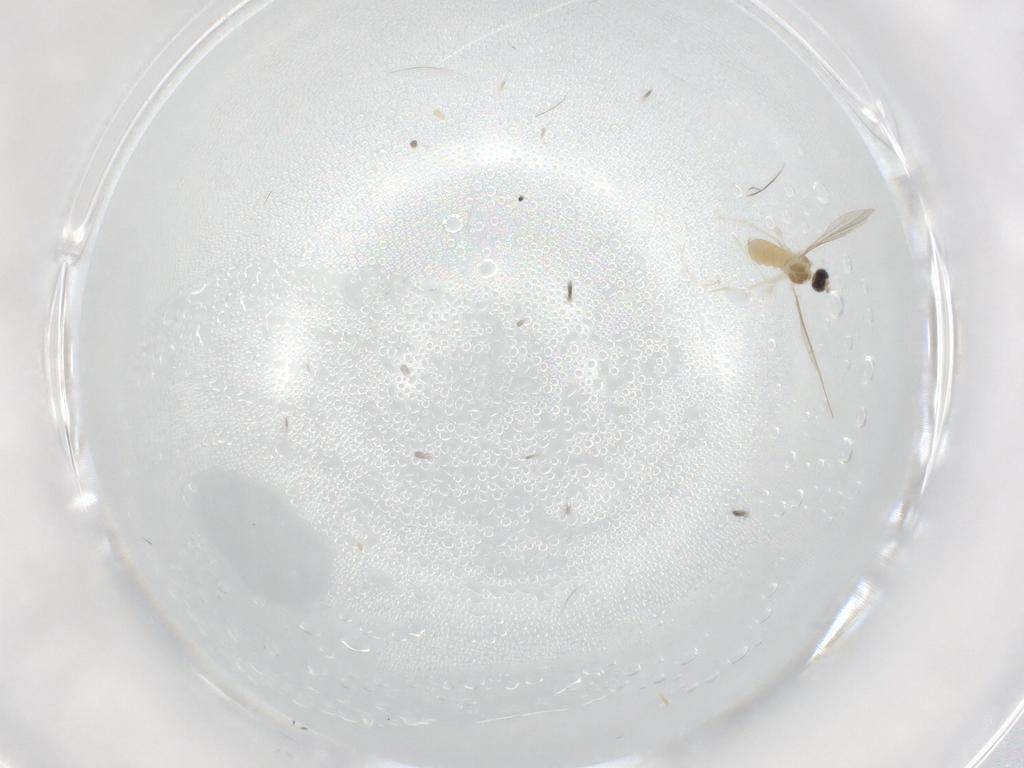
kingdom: Animalia
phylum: Arthropoda
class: Insecta
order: Diptera
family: Cecidomyiidae
